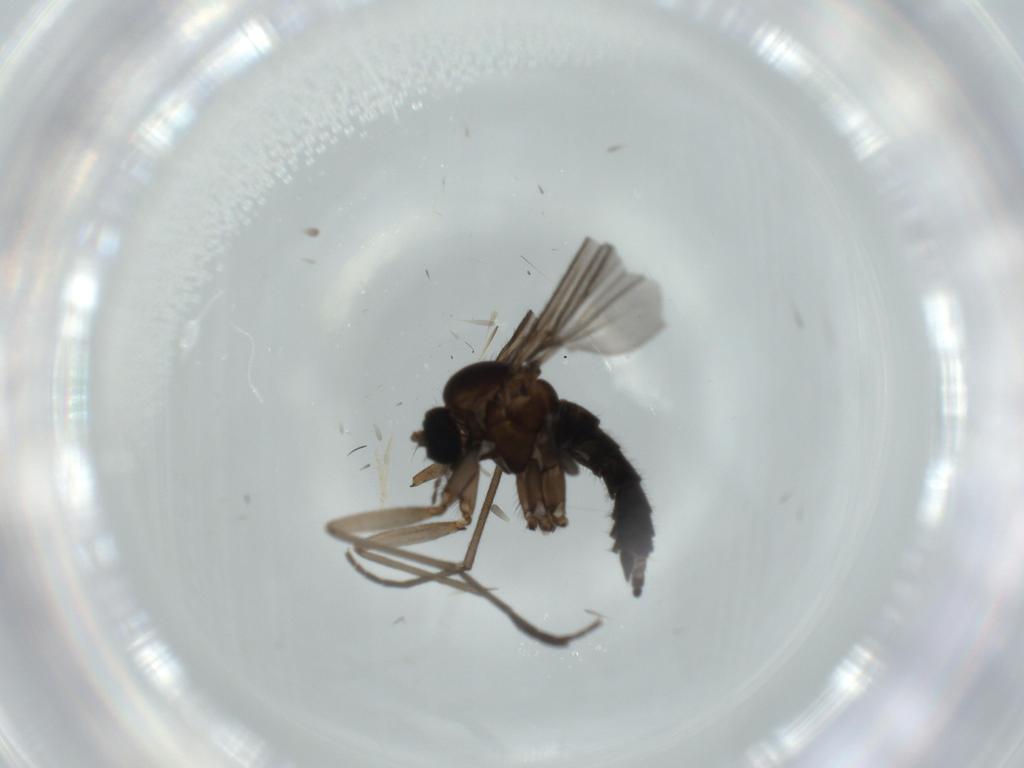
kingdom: Animalia
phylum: Arthropoda
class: Insecta
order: Diptera
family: Sciaridae
